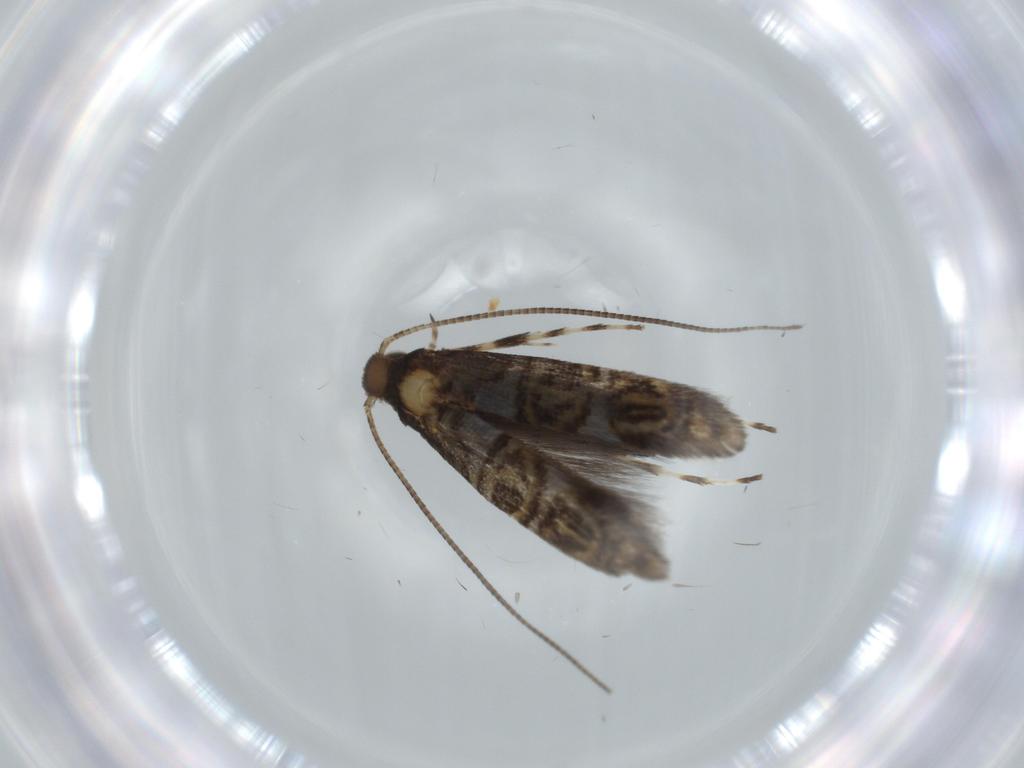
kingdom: Animalia
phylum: Arthropoda
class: Insecta
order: Lepidoptera
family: Gracillariidae
